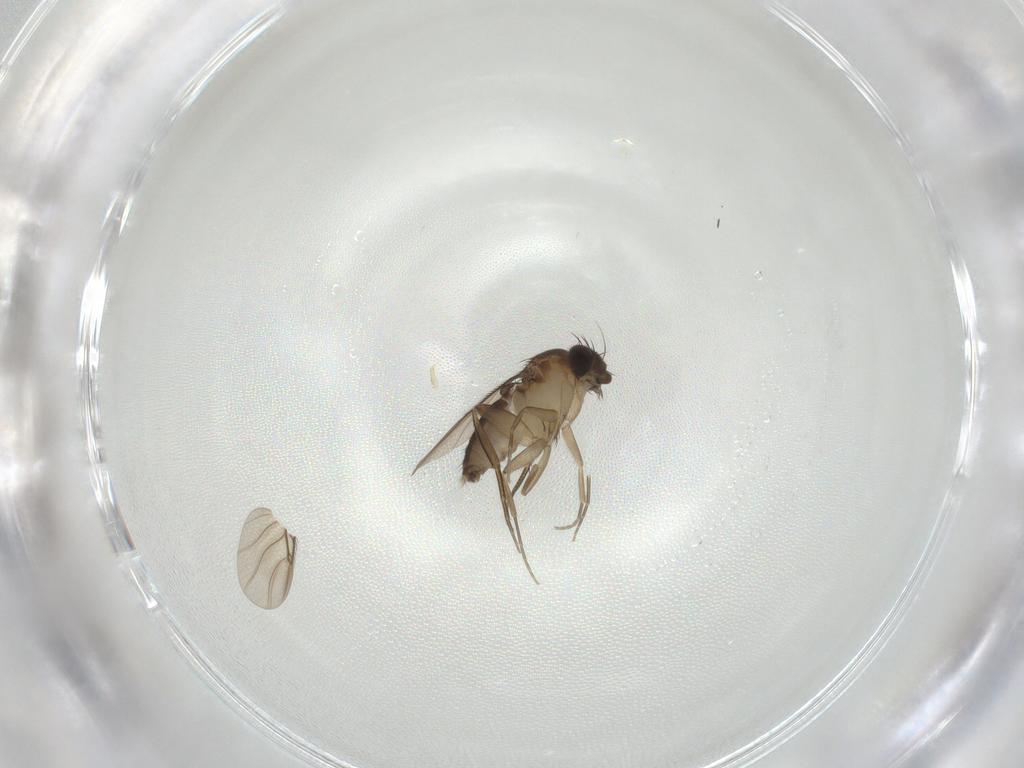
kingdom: Animalia
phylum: Arthropoda
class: Insecta
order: Diptera
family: Phoridae
